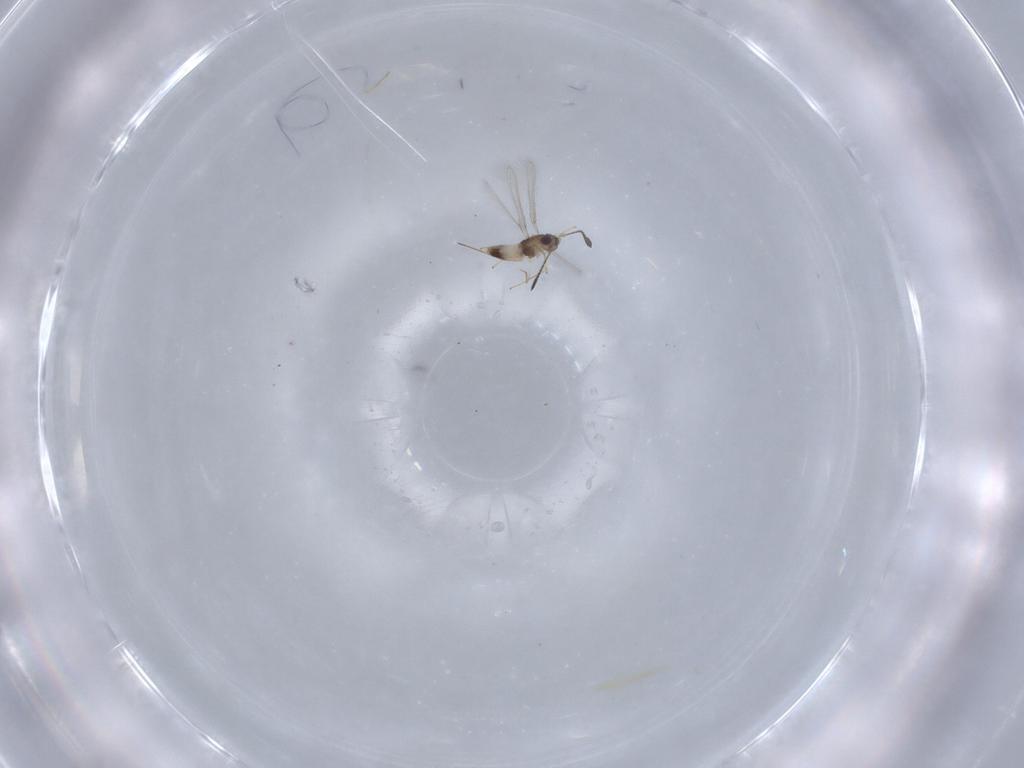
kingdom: Animalia
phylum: Arthropoda
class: Insecta
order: Hymenoptera
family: Mymaridae
